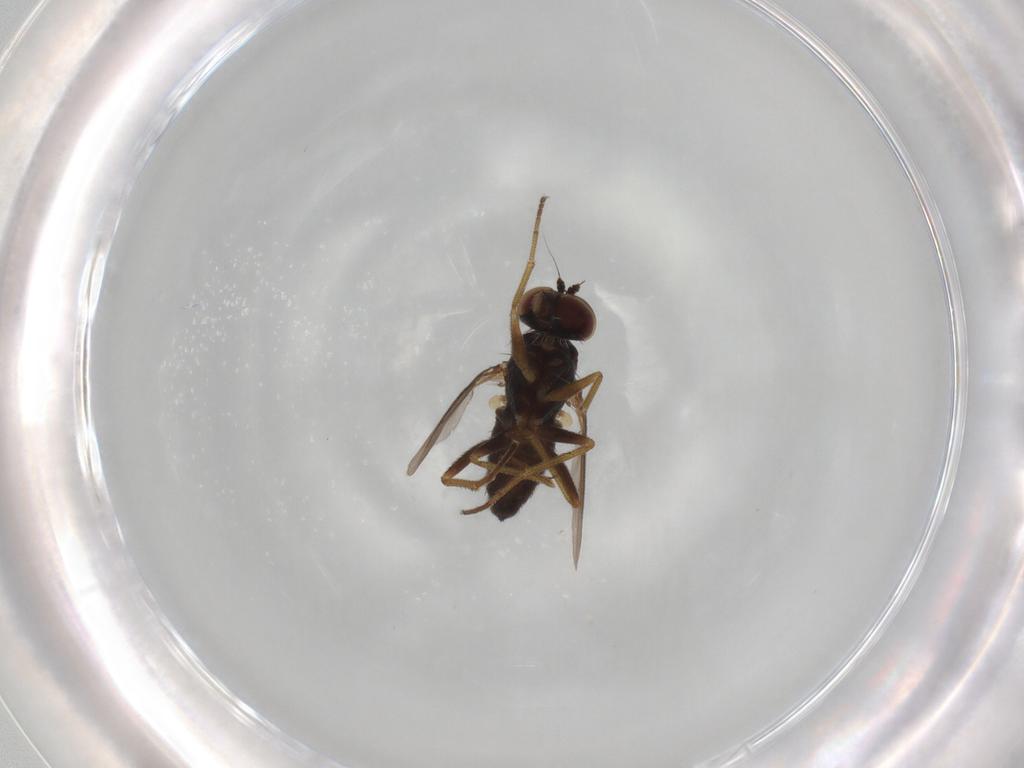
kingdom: Animalia
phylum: Arthropoda
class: Insecta
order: Diptera
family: Dolichopodidae
